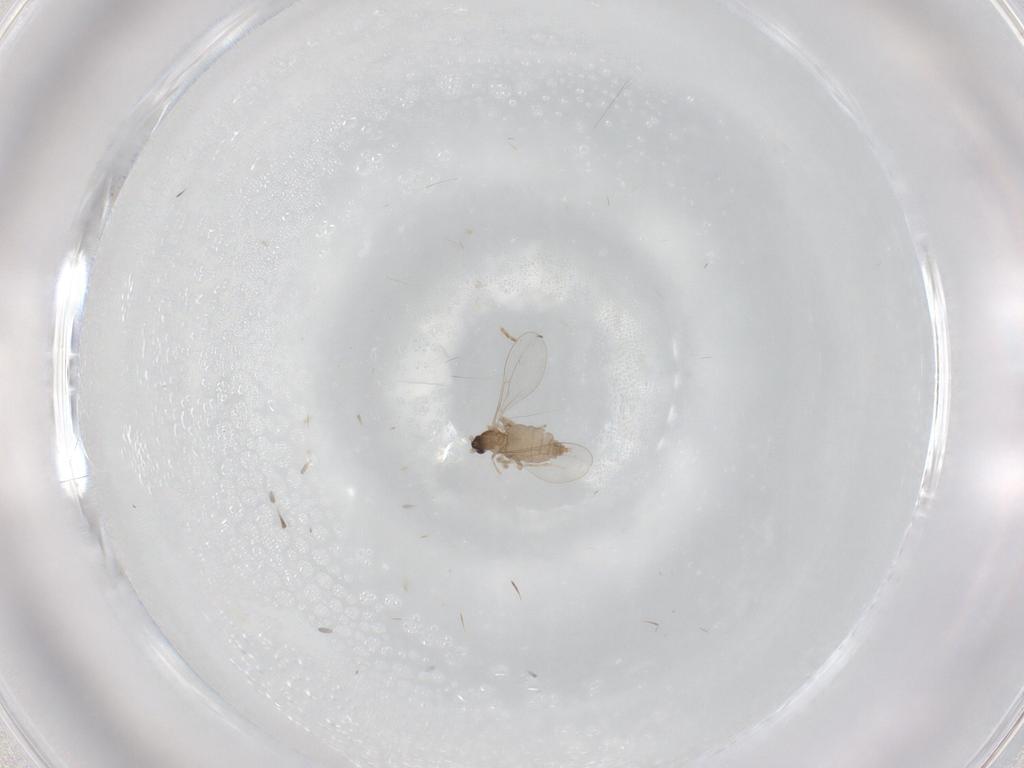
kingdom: Animalia
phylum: Arthropoda
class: Insecta
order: Diptera
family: Cecidomyiidae
